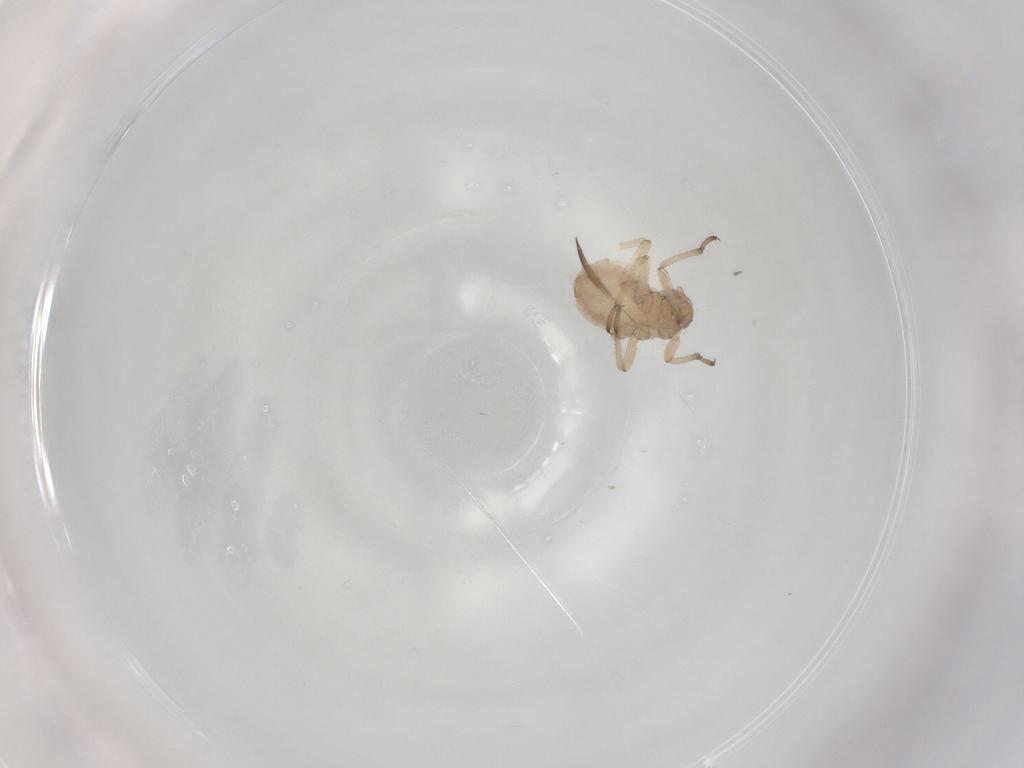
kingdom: Animalia
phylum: Arthropoda
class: Insecta
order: Hemiptera
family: Aphididae
